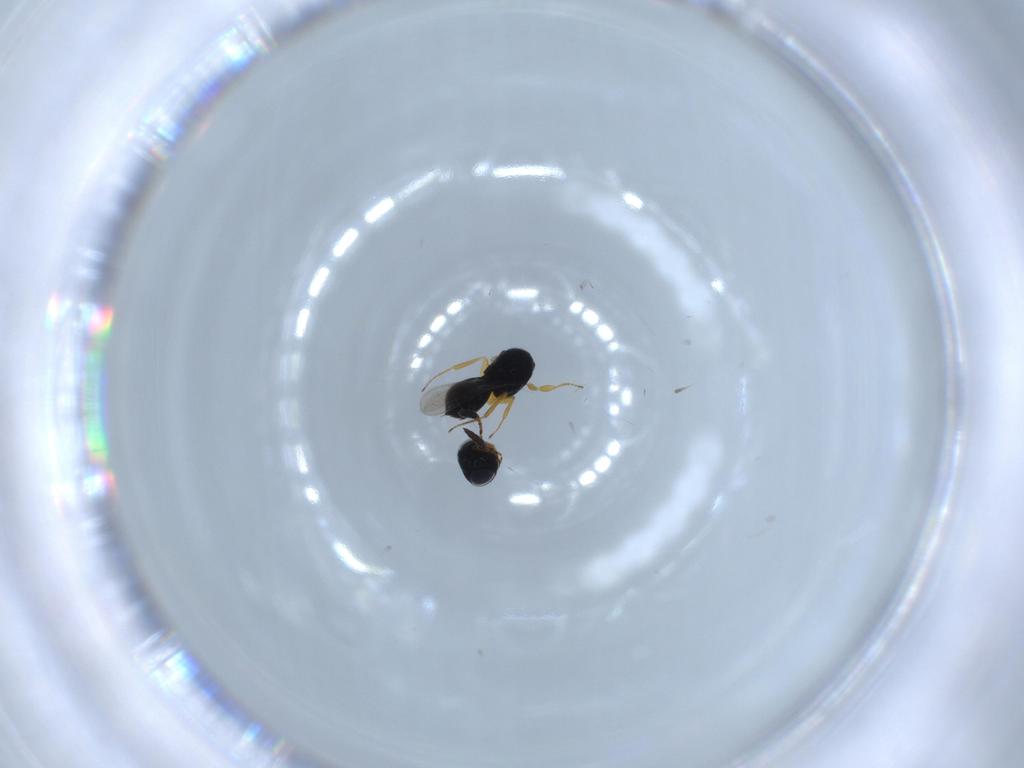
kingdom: Animalia
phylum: Arthropoda
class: Insecta
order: Hymenoptera
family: Scelionidae
